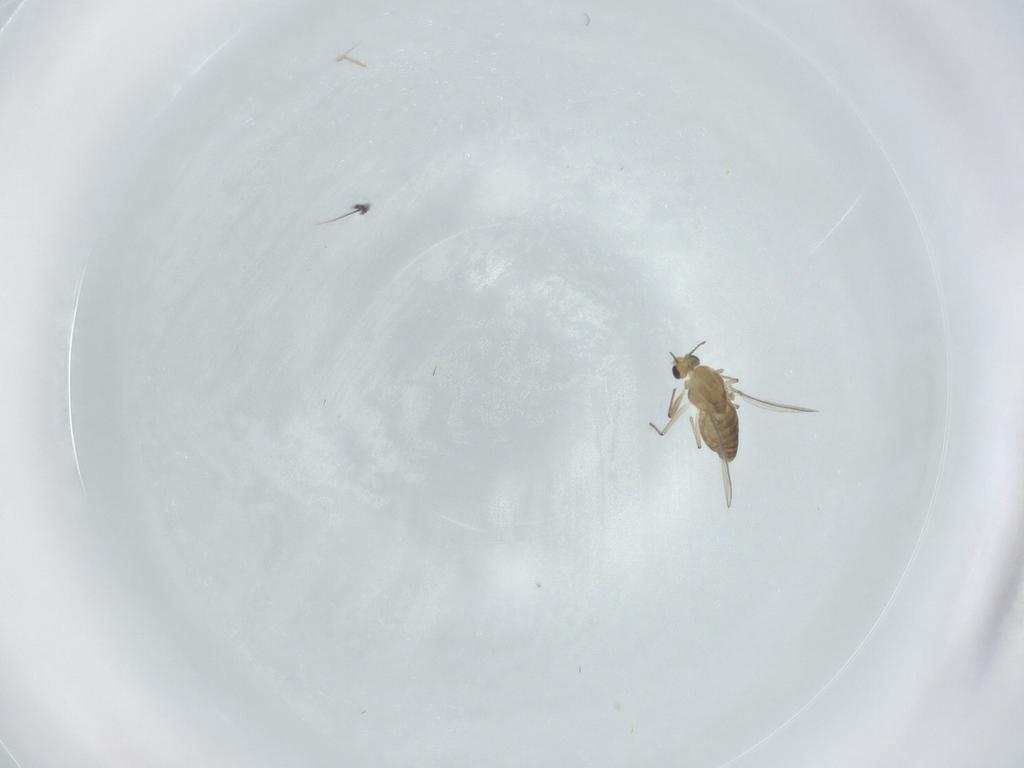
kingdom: Animalia
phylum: Arthropoda
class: Insecta
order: Diptera
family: Chironomidae
